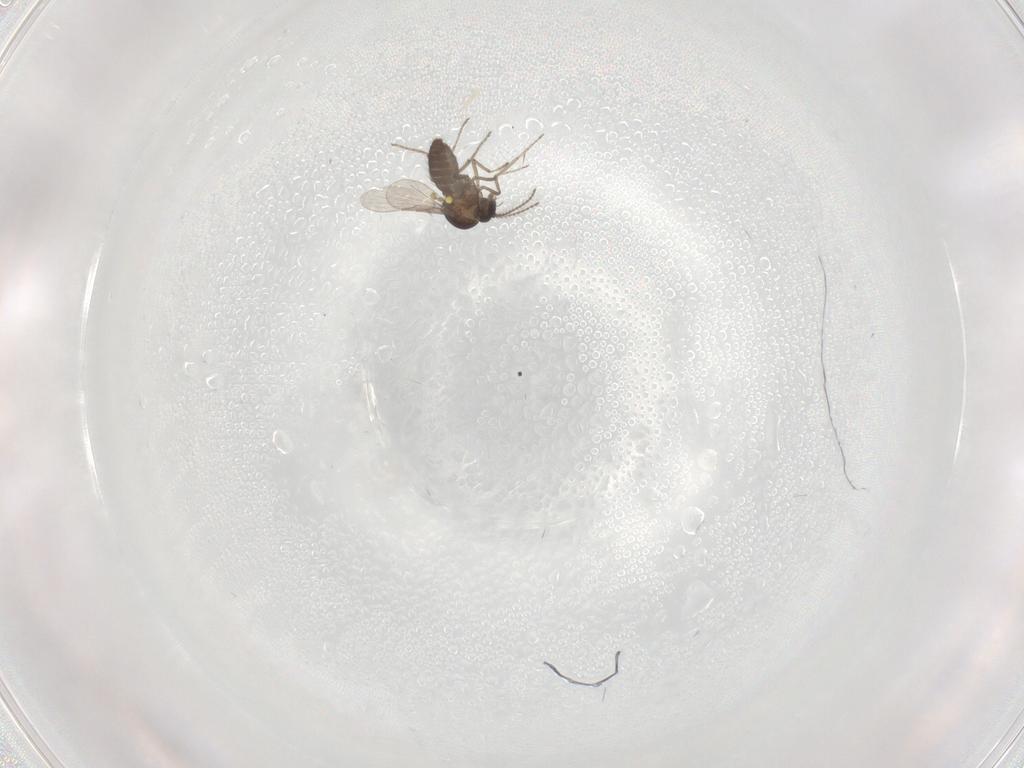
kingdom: Animalia
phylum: Arthropoda
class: Insecta
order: Diptera
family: Ceratopogonidae
